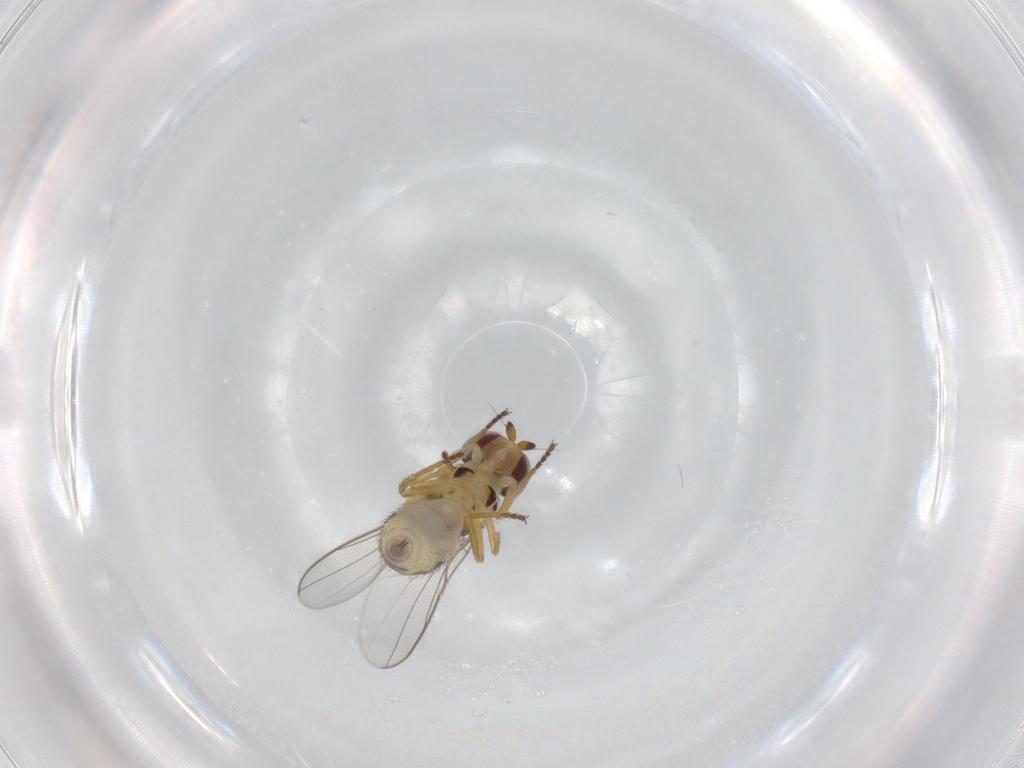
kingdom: Animalia
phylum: Arthropoda
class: Insecta
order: Diptera
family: Chloropidae
